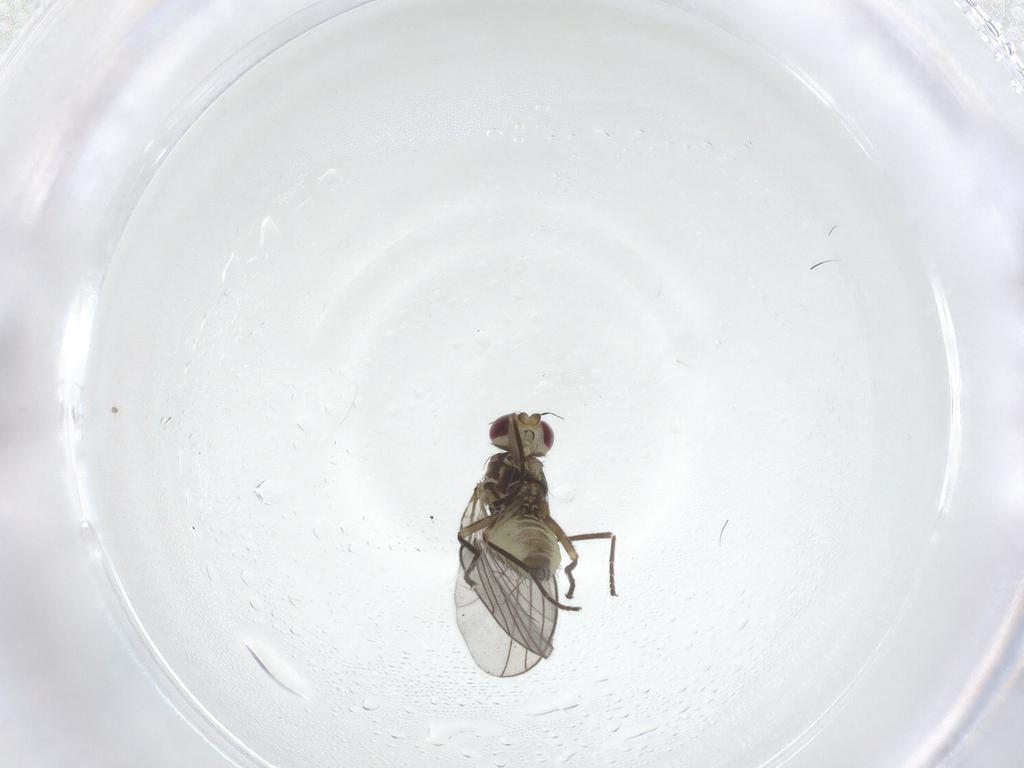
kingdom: Animalia
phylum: Arthropoda
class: Insecta
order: Diptera
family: Agromyzidae
